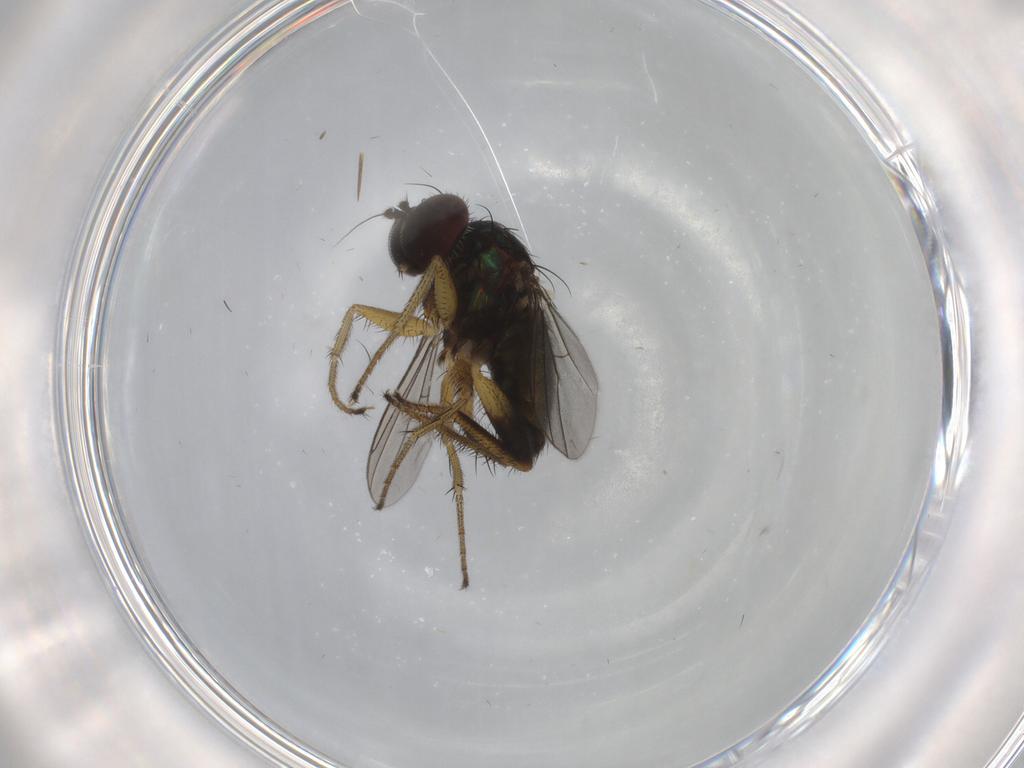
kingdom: Animalia
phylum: Arthropoda
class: Insecta
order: Diptera
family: Dolichopodidae
